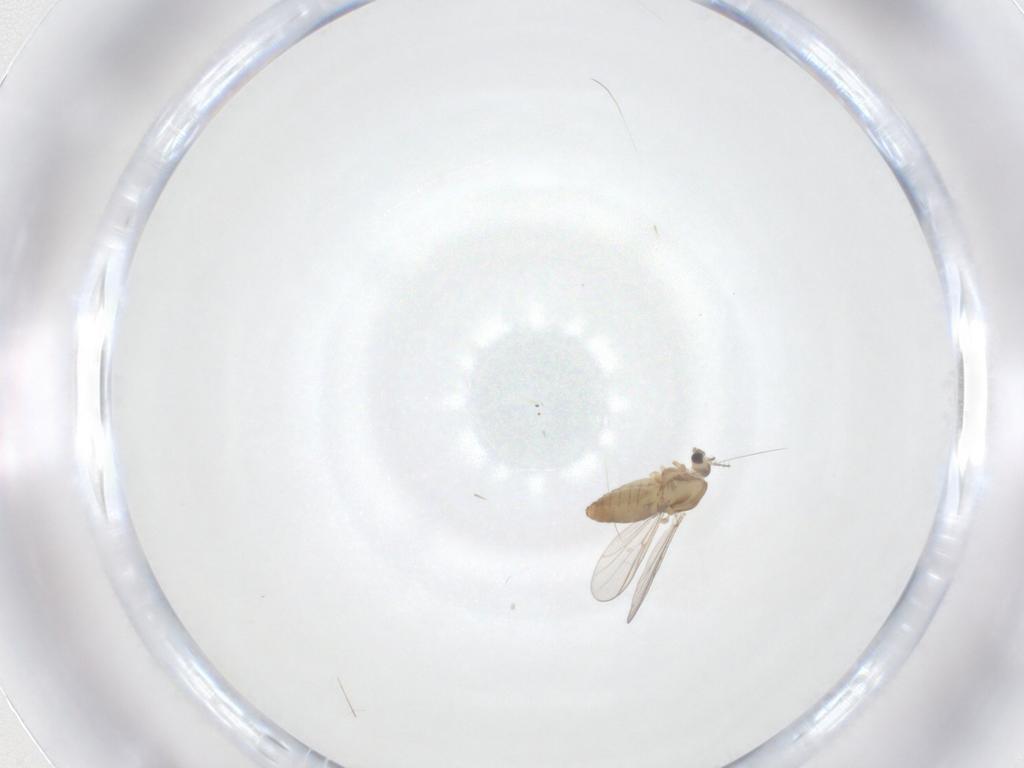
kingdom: Animalia
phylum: Arthropoda
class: Insecta
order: Diptera
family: Chironomidae
